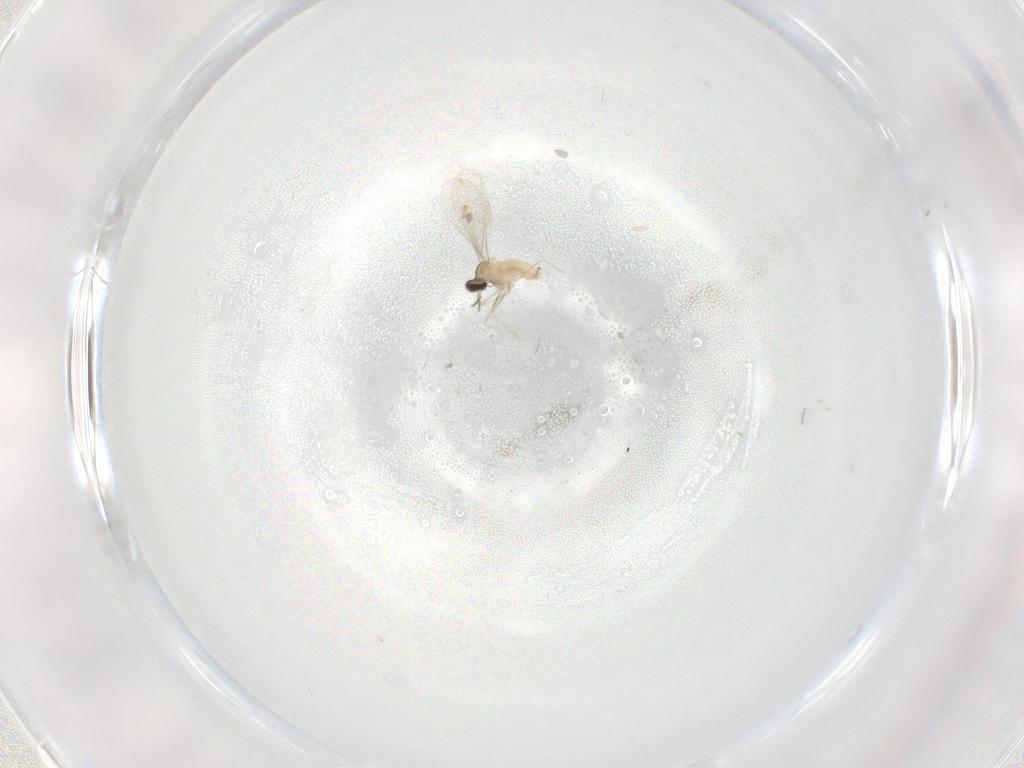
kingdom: Animalia
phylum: Arthropoda
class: Insecta
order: Diptera
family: Cecidomyiidae
